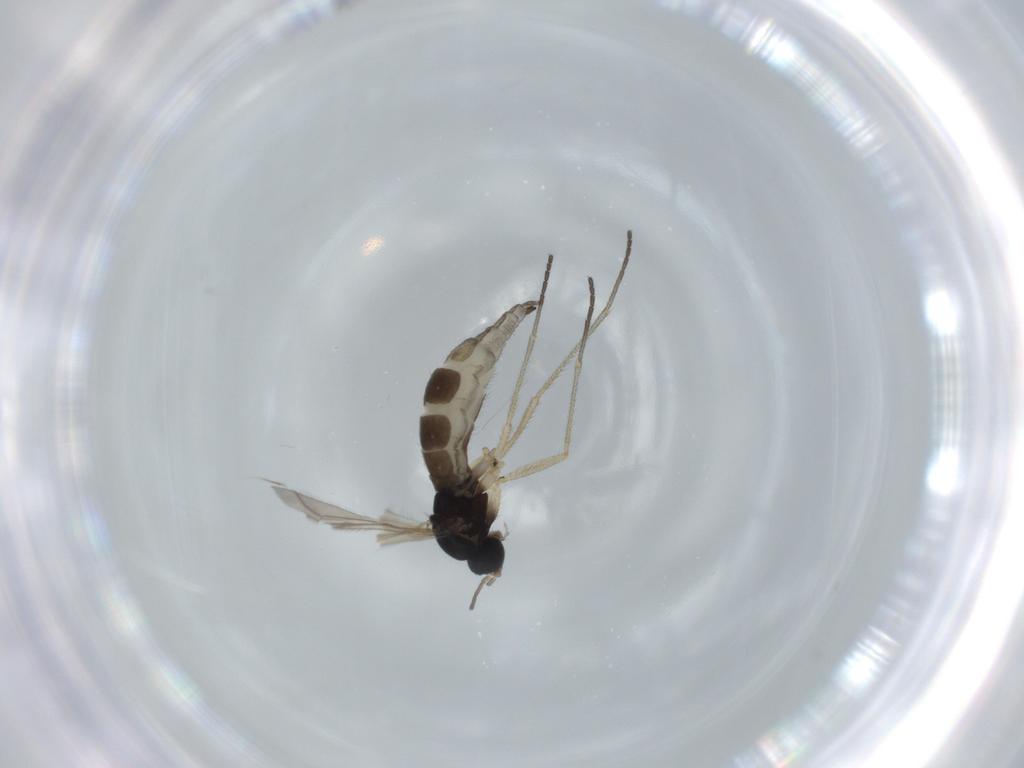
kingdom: Animalia
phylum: Arthropoda
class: Insecta
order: Diptera
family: Sciaridae
